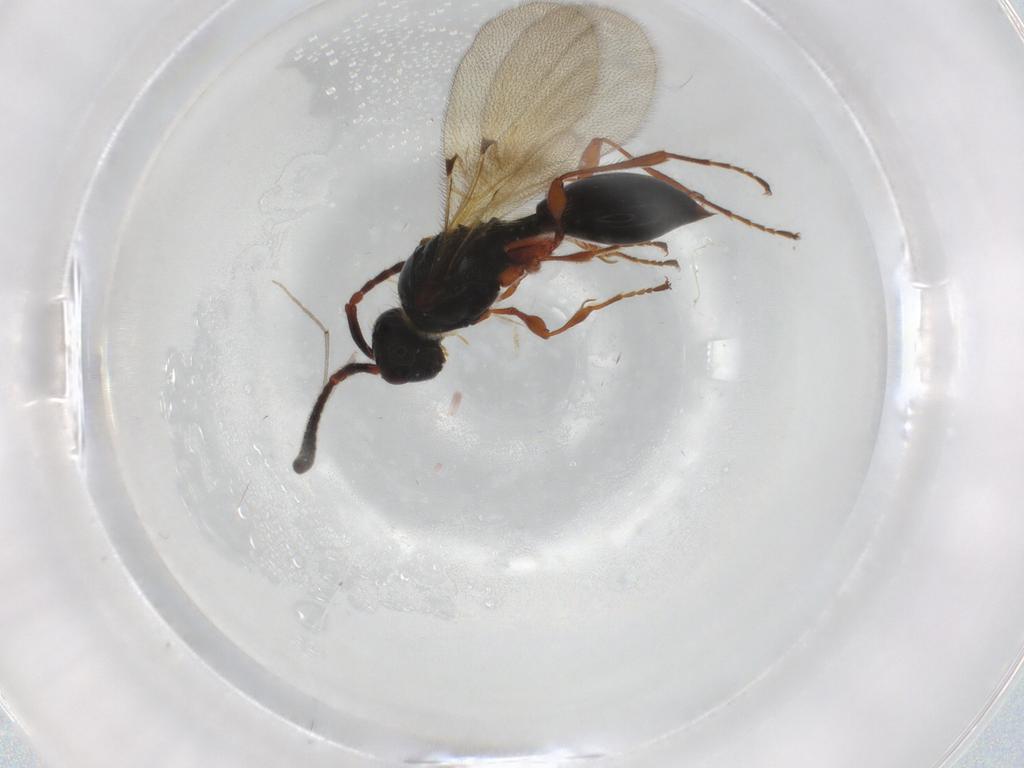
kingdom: Animalia
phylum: Arthropoda
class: Insecta
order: Hymenoptera
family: Diapriidae
